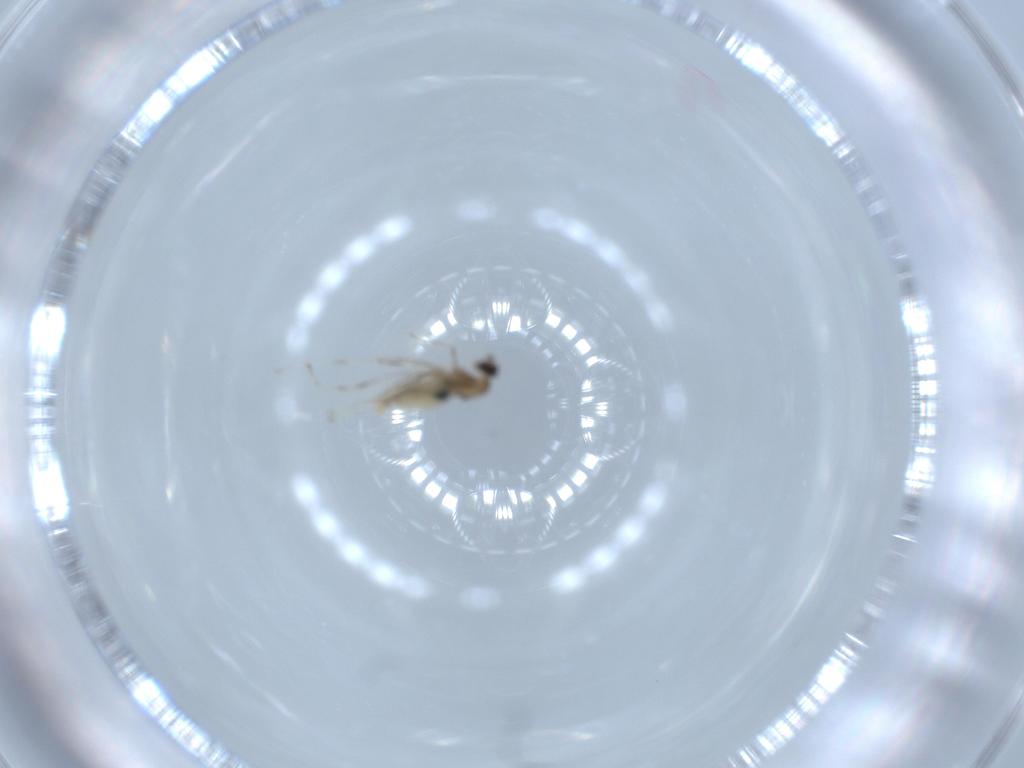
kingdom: Animalia
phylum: Arthropoda
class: Insecta
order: Diptera
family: Cecidomyiidae
